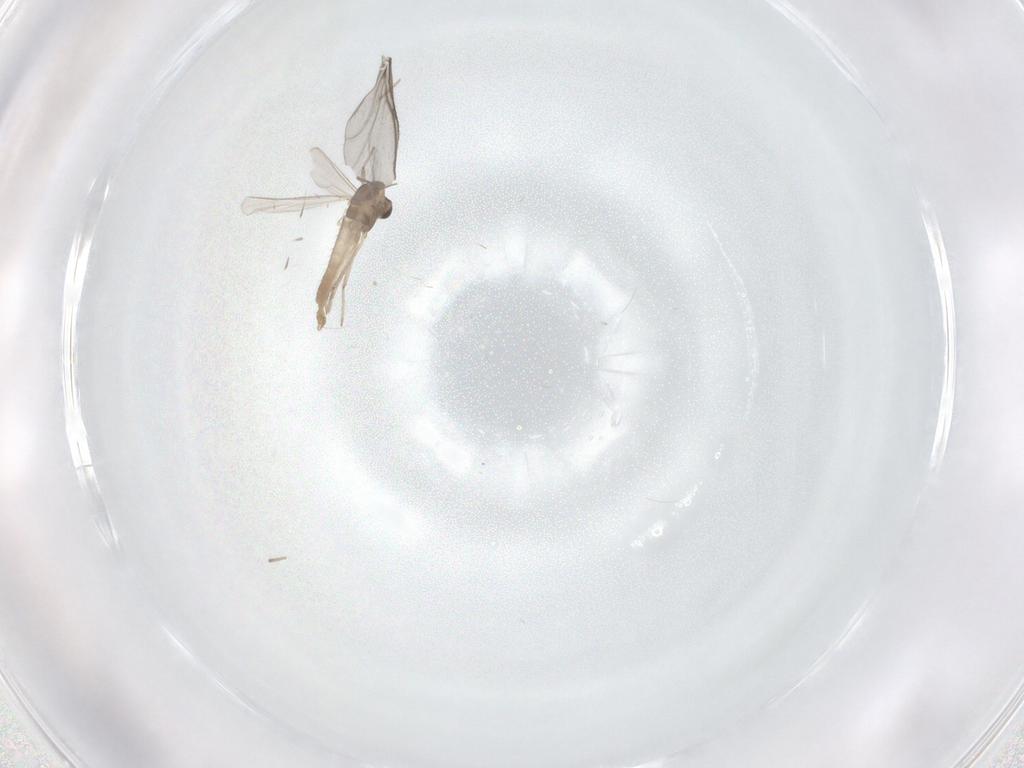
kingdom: Animalia
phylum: Arthropoda
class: Insecta
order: Diptera
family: Chironomidae
